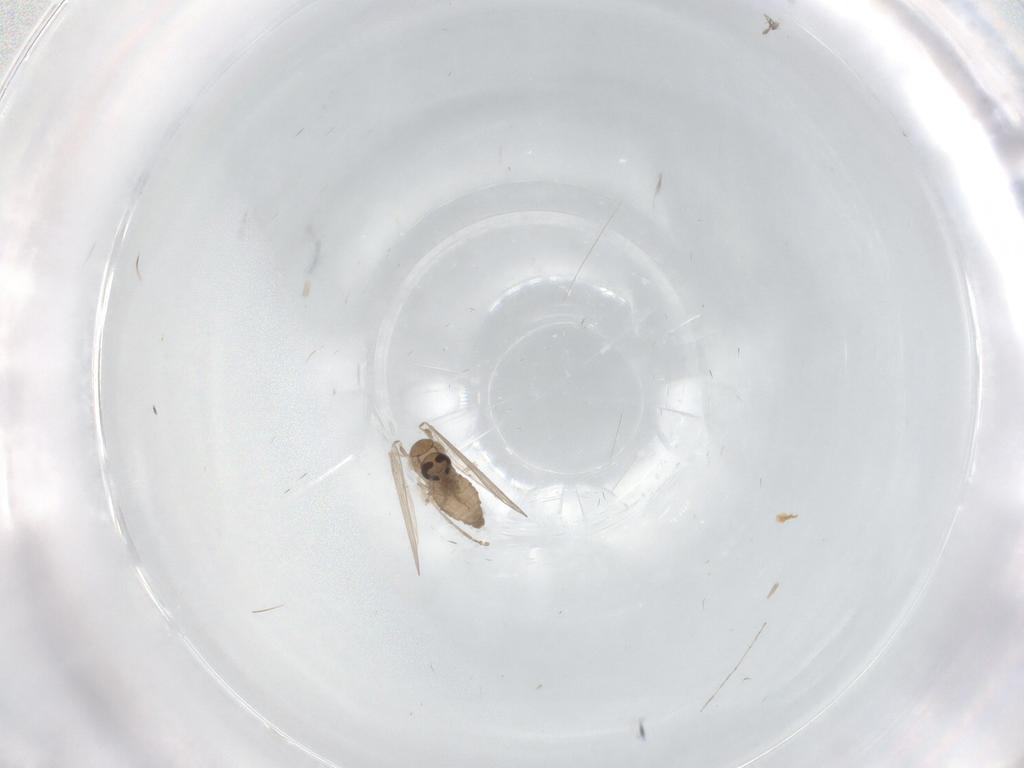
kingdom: Animalia
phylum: Arthropoda
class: Insecta
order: Diptera
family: Psychodidae
